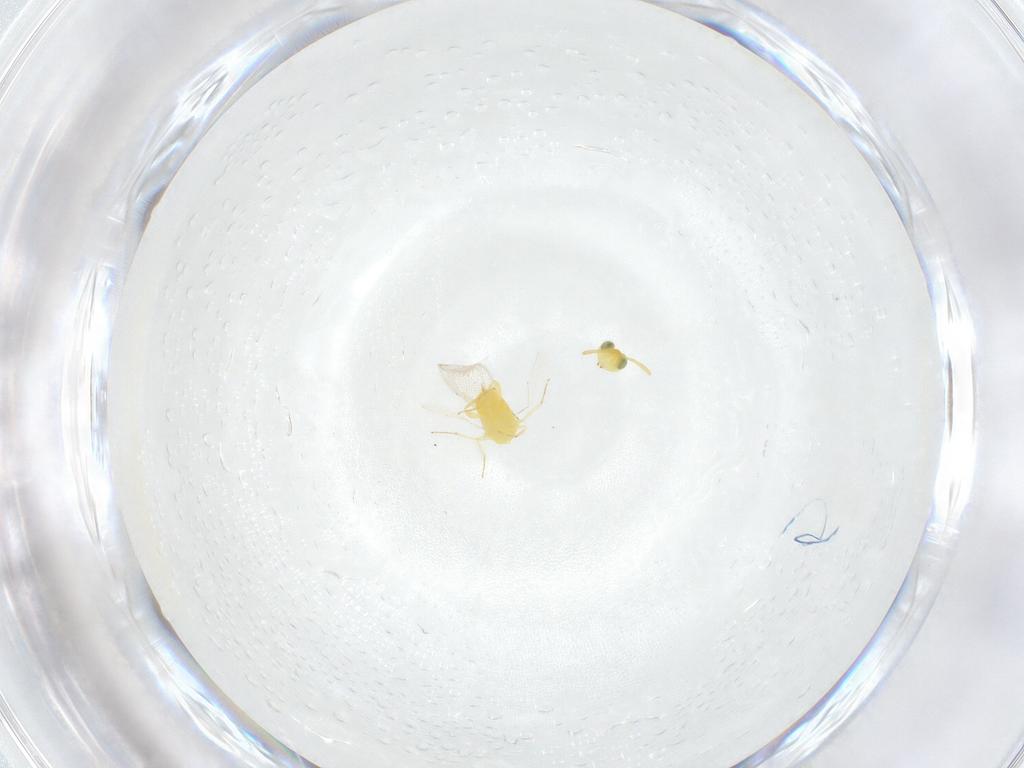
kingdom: Animalia
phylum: Arthropoda
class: Insecta
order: Hymenoptera
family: Aphelinidae
